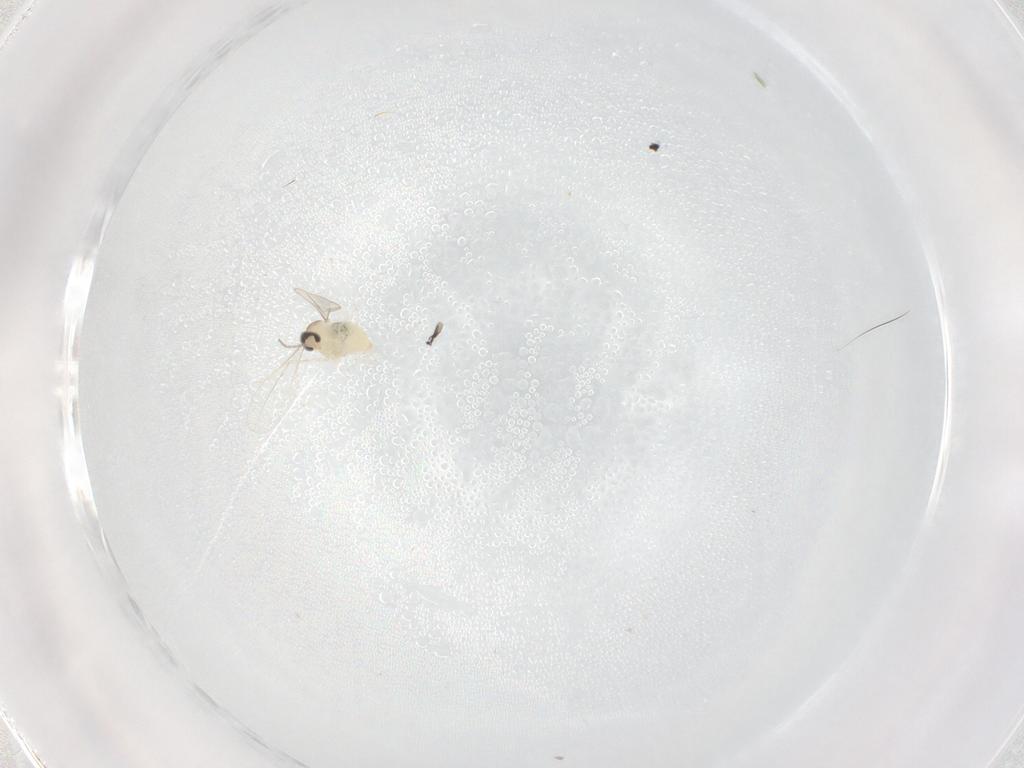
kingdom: Animalia
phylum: Arthropoda
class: Insecta
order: Diptera
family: Cecidomyiidae
